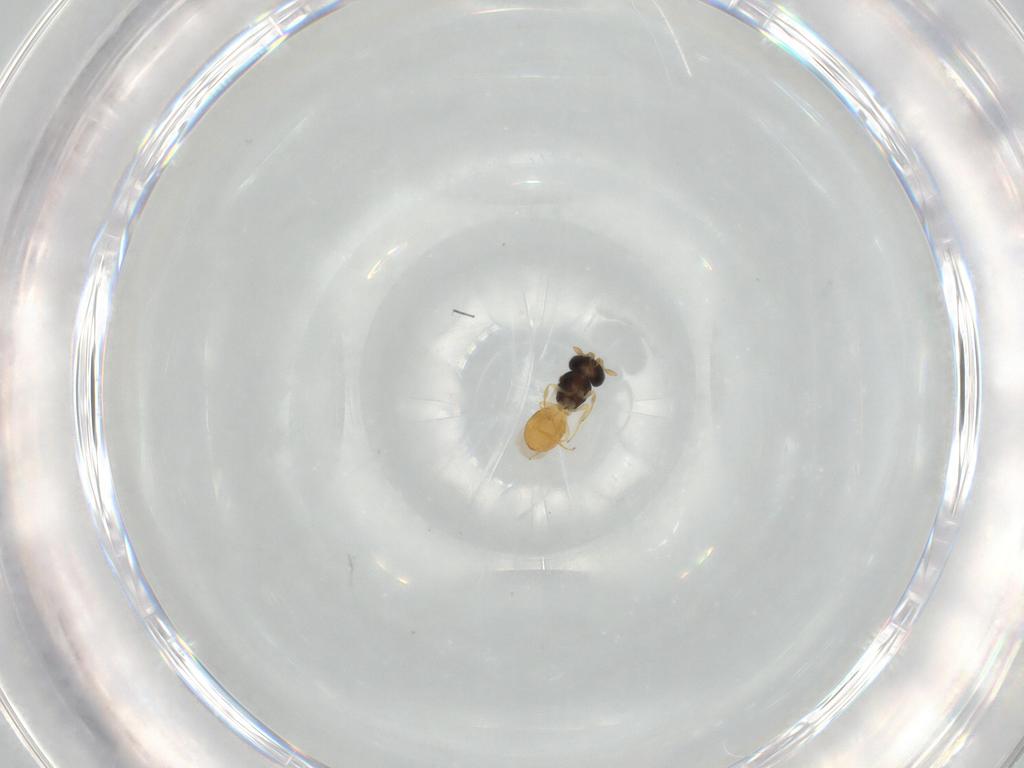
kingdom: Animalia
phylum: Arthropoda
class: Insecta
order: Hymenoptera
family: Scelionidae
